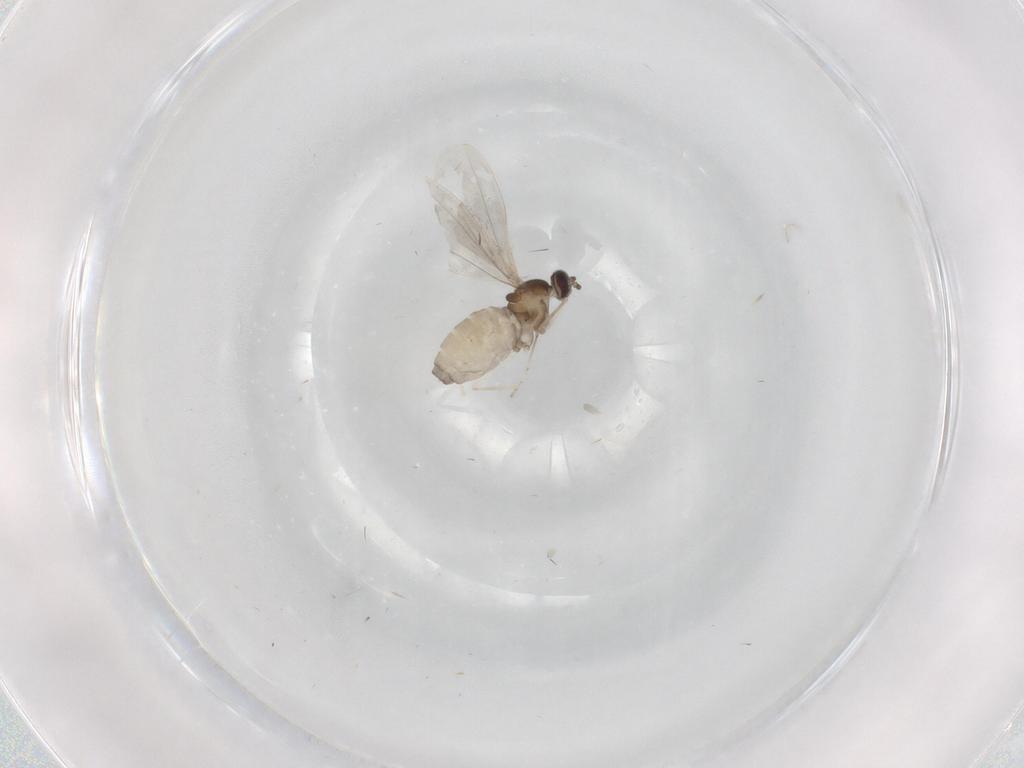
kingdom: Animalia
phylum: Arthropoda
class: Insecta
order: Diptera
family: Cecidomyiidae
